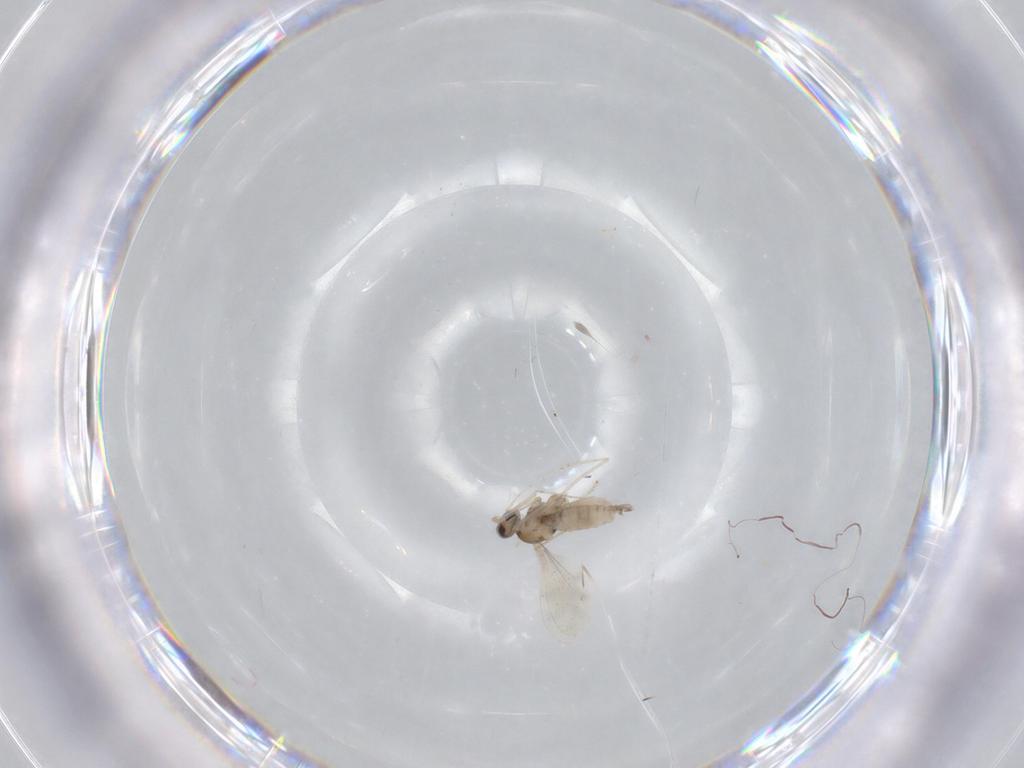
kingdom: Animalia
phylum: Arthropoda
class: Insecta
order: Diptera
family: Cecidomyiidae
